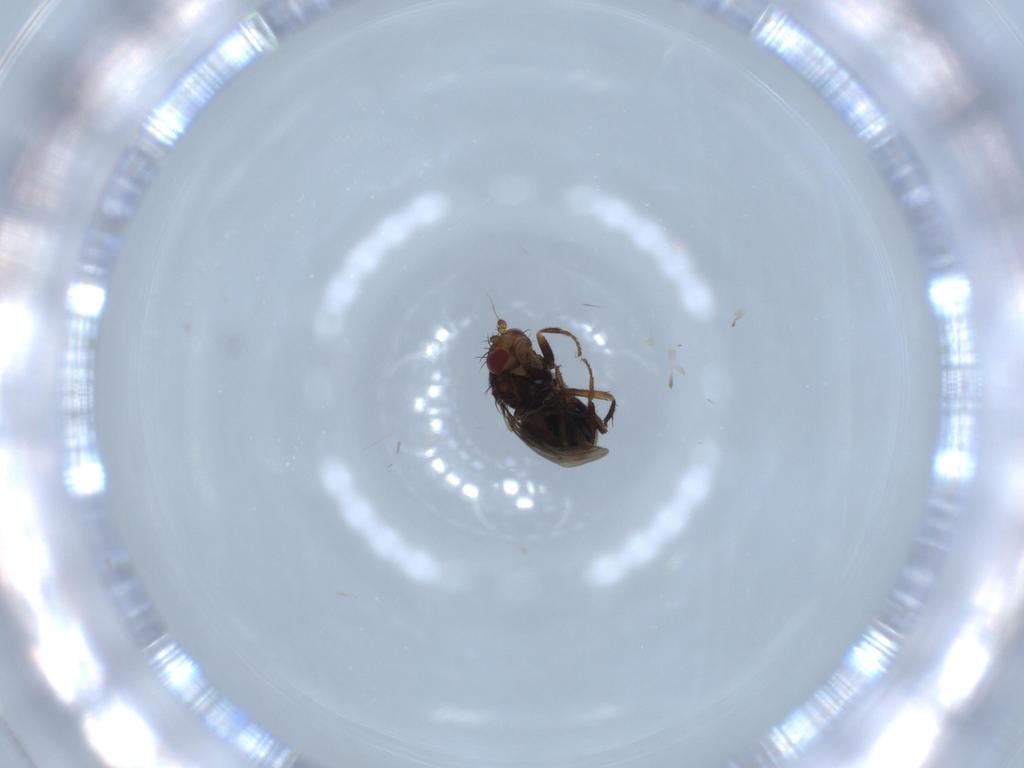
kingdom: Animalia
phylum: Arthropoda
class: Insecta
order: Diptera
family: Sphaeroceridae
